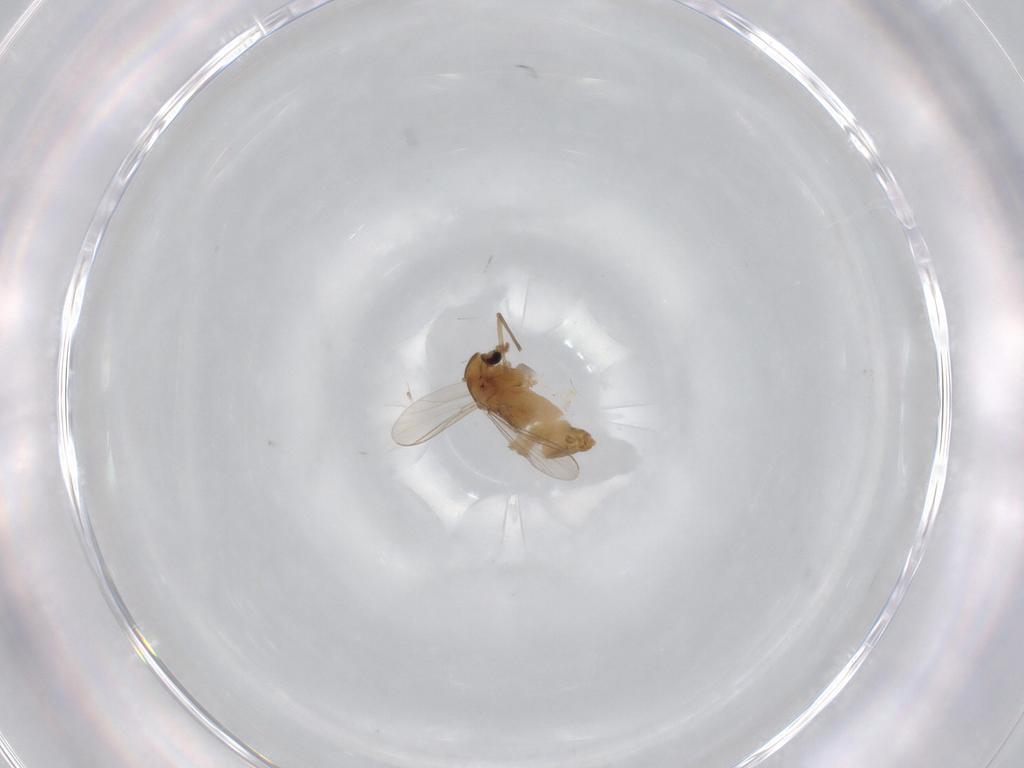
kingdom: Animalia
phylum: Arthropoda
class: Insecta
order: Diptera
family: Chironomidae
